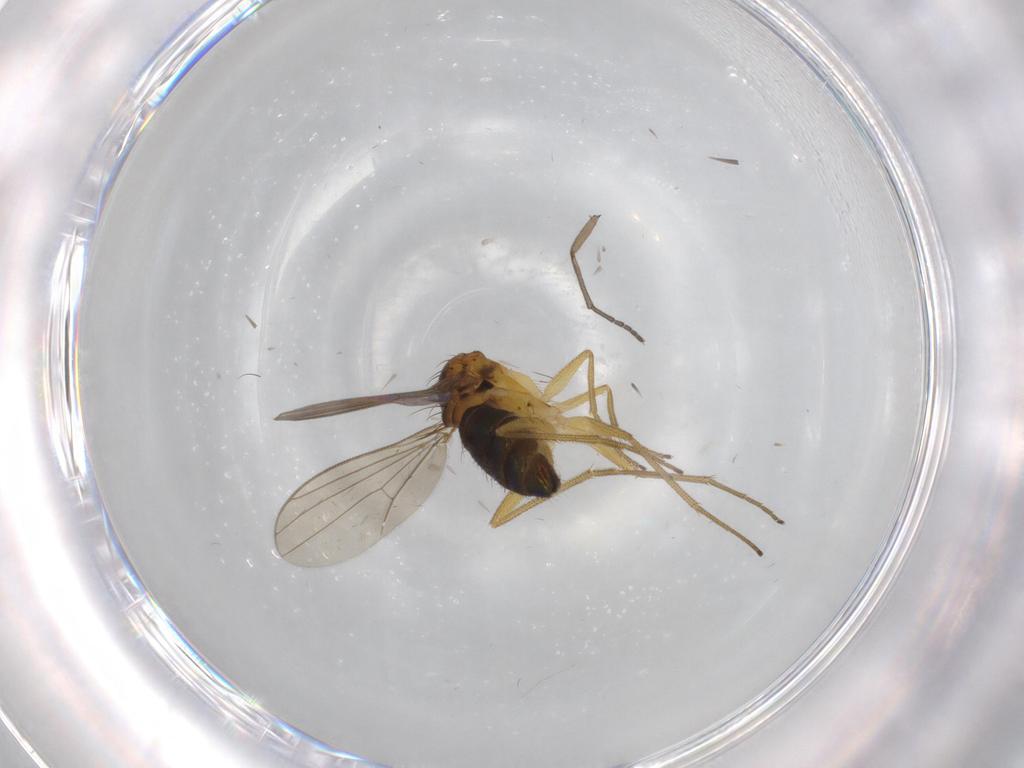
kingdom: Animalia
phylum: Arthropoda
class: Insecta
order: Diptera
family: Dolichopodidae
